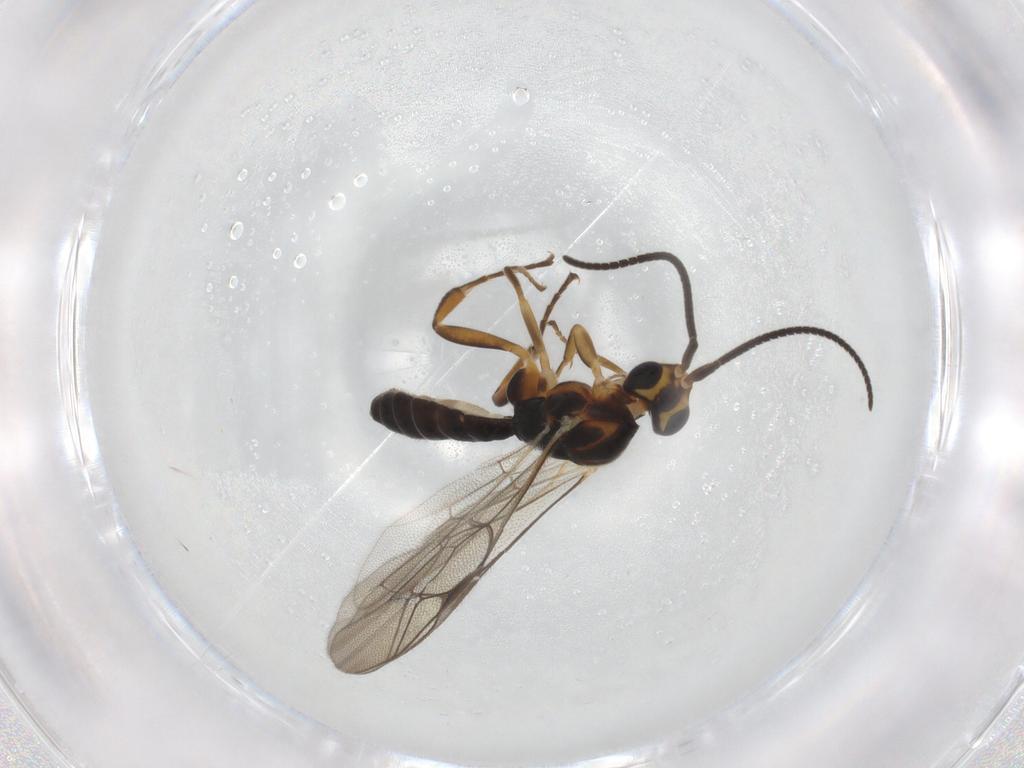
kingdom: Animalia
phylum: Arthropoda
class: Insecta
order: Hymenoptera
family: Ichneumonidae
